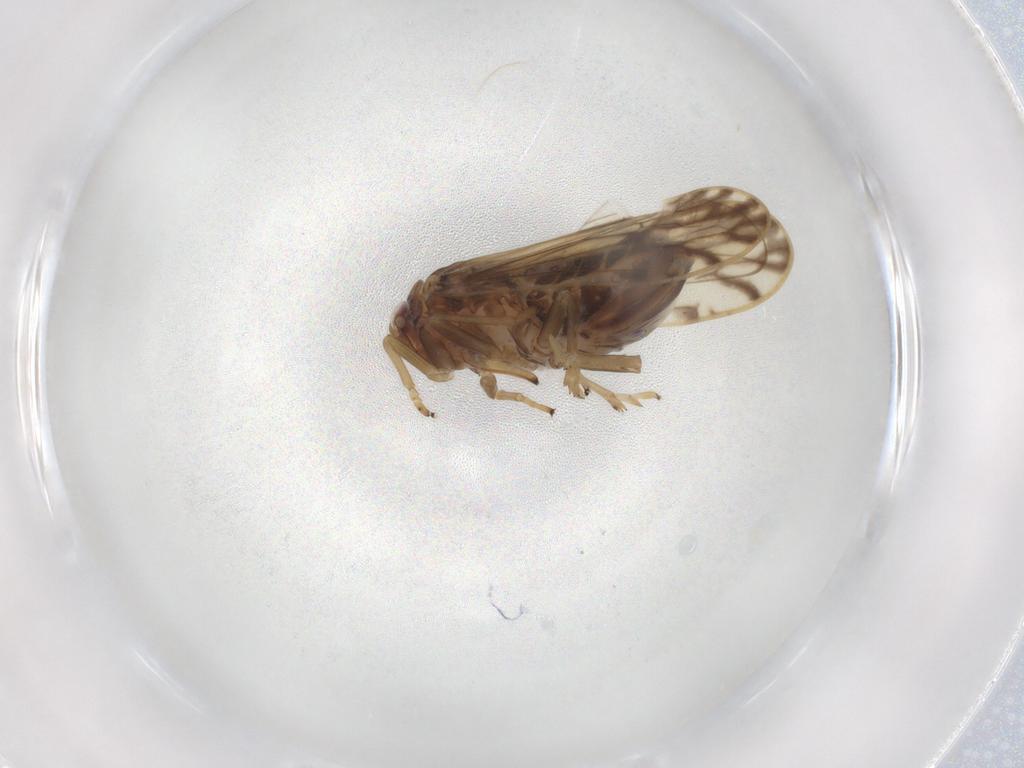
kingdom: Animalia
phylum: Arthropoda
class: Insecta
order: Hemiptera
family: Delphacidae
